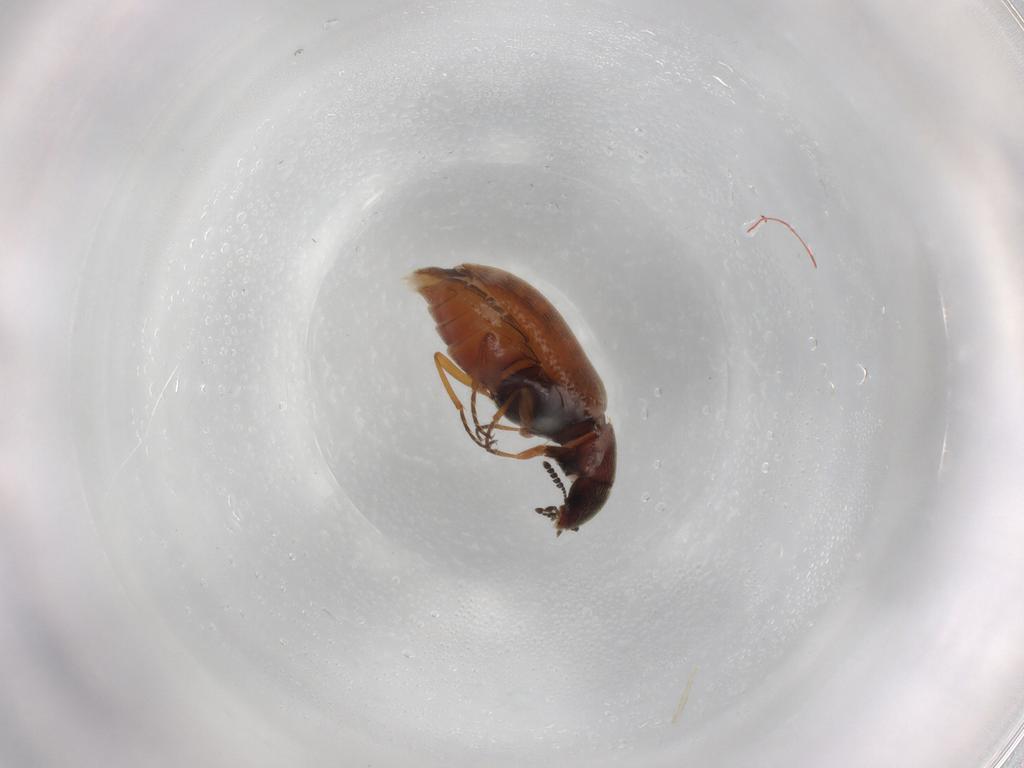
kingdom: Animalia
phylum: Arthropoda
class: Insecta
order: Coleoptera
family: Rhadalidae
